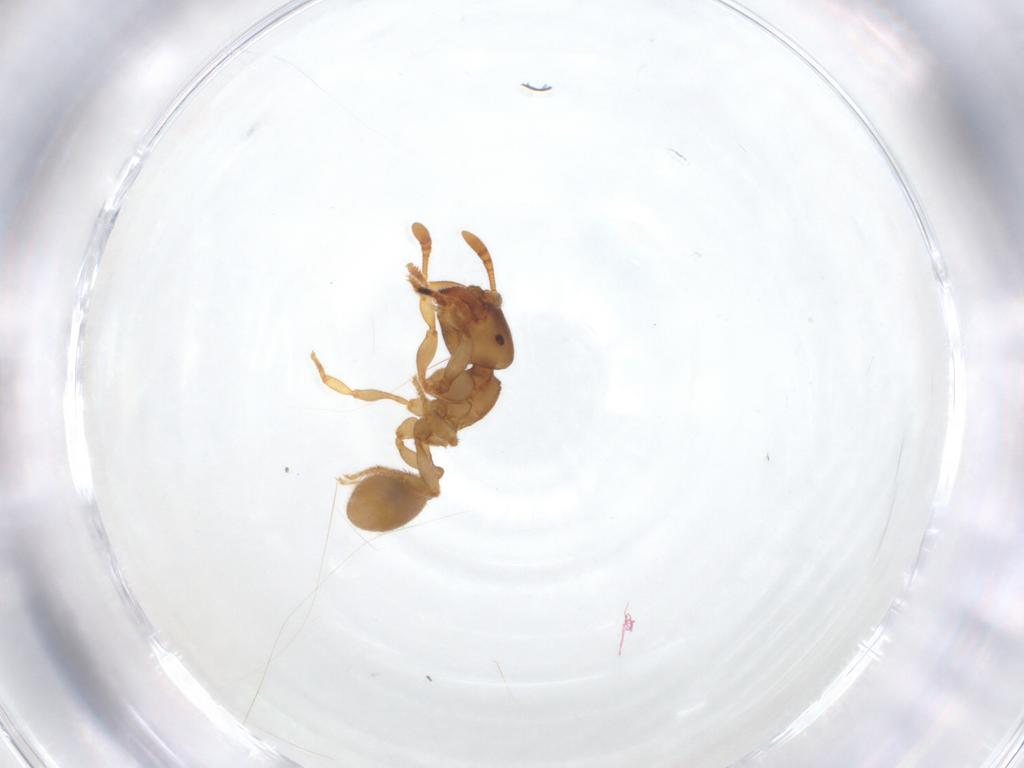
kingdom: Animalia
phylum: Arthropoda
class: Insecta
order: Hymenoptera
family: Formicidae
